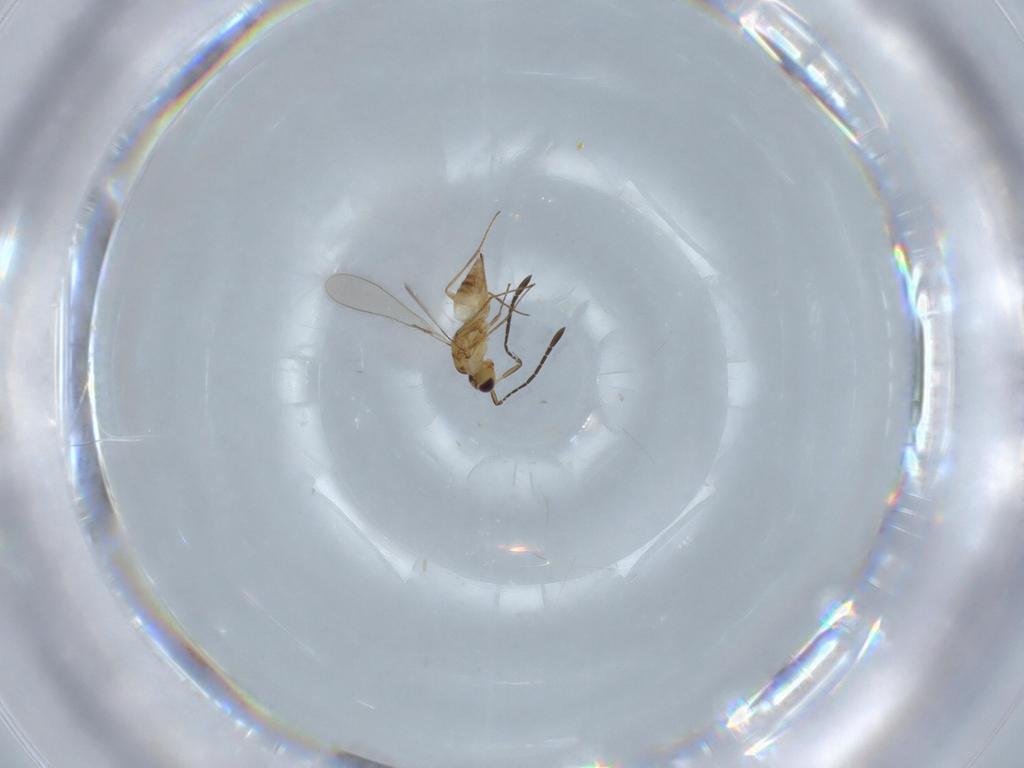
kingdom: Animalia
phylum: Arthropoda
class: Insecta
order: Hymenoptera
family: Mymaridae
